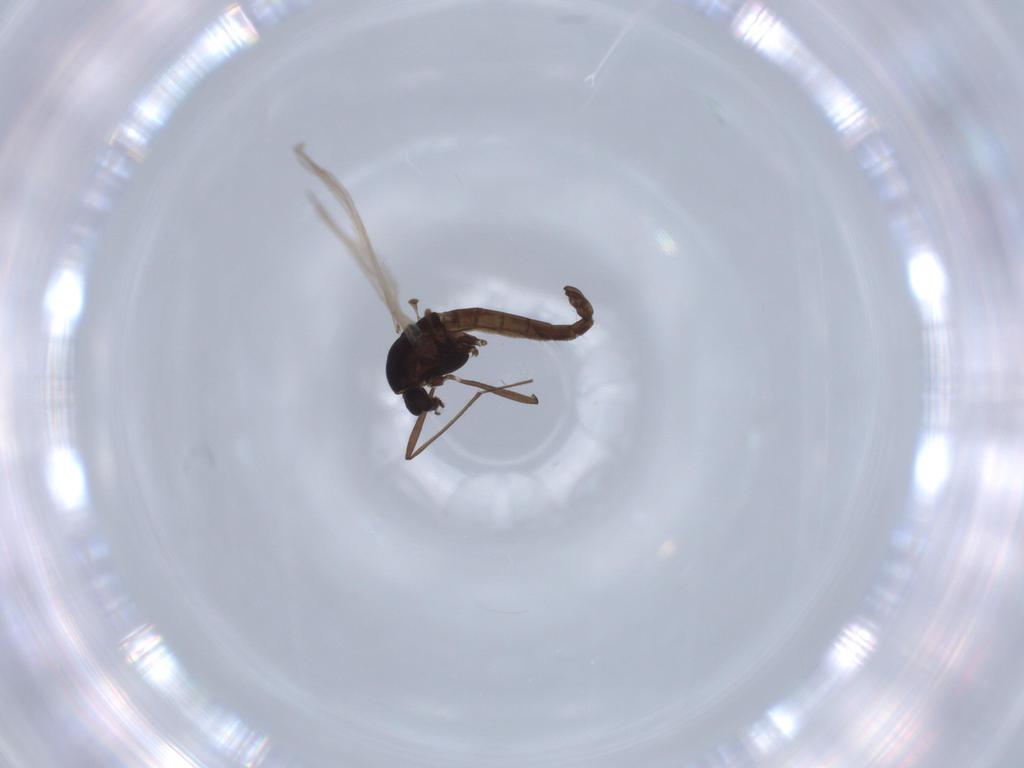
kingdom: Animalia
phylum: Arthropoda
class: Insecta
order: Diptera
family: Chironomidae
